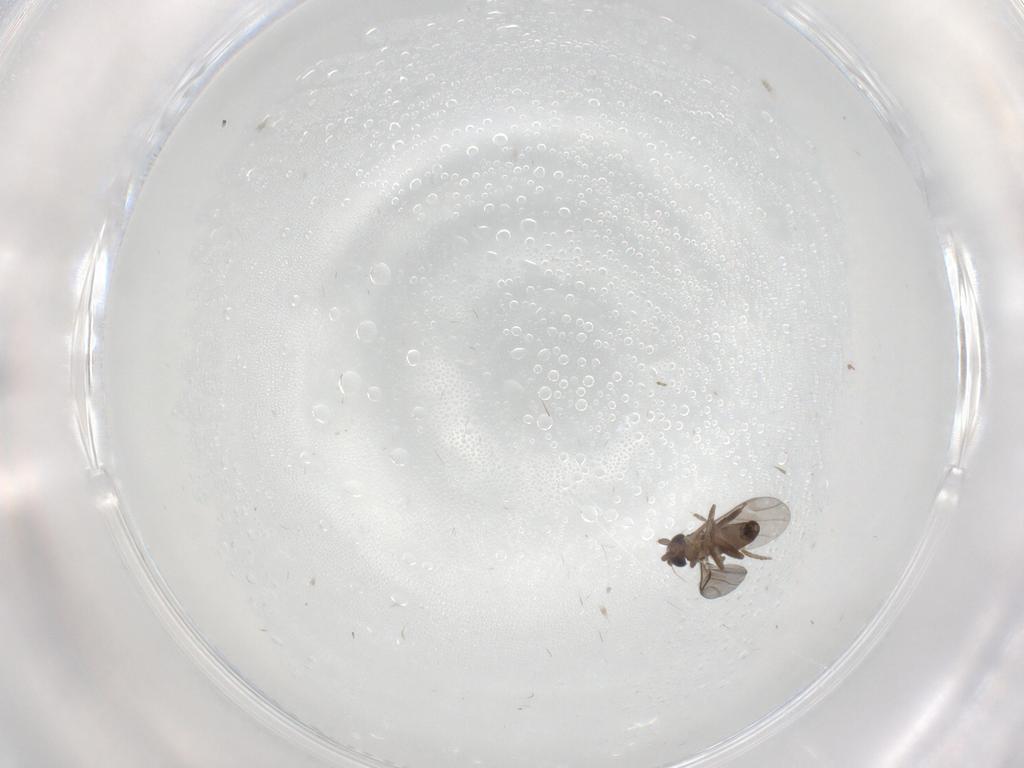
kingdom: Animalia
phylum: Arthropoda
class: Insecta
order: Diptera
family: Cecidomyiidae
